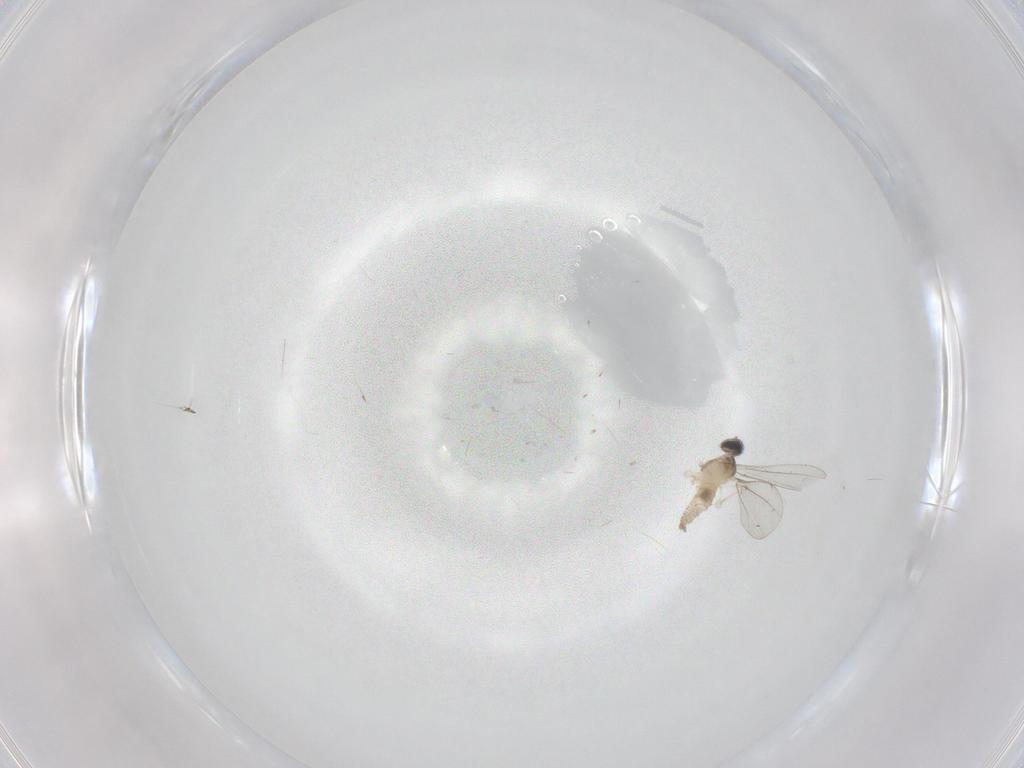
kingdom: Animalia
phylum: Arthropoda
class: Insecta
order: Diptera
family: Cecidomyiidae
